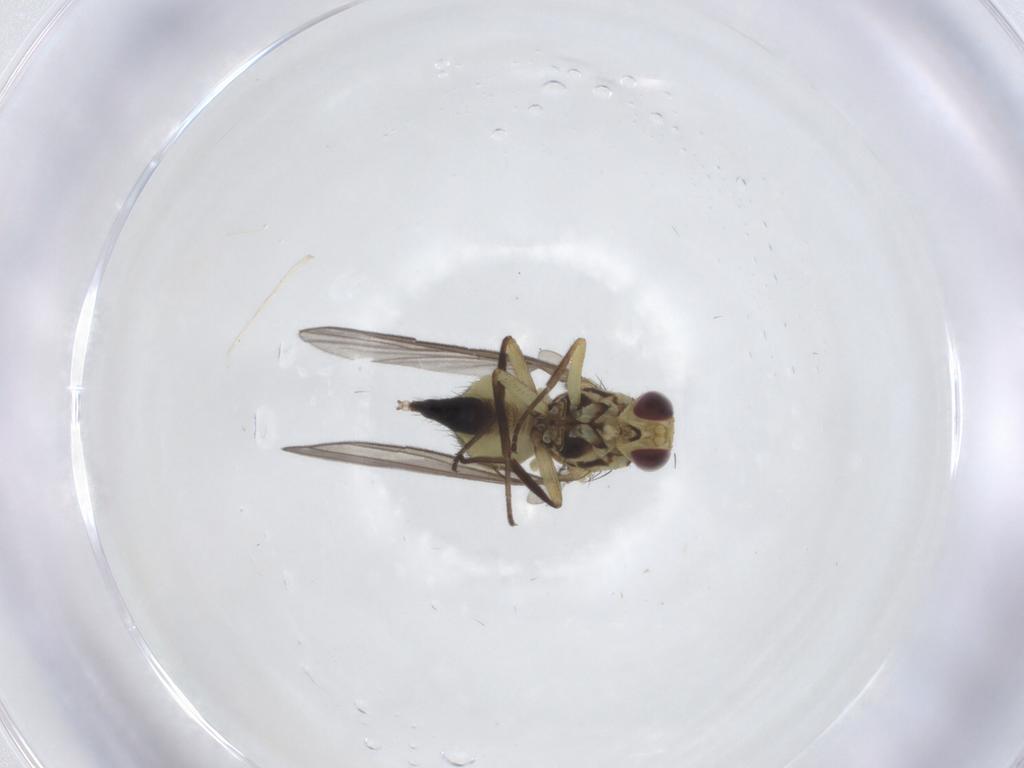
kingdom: Animalia
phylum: Arthropoda
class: Insecta
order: Diptera
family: Agromyzidae
